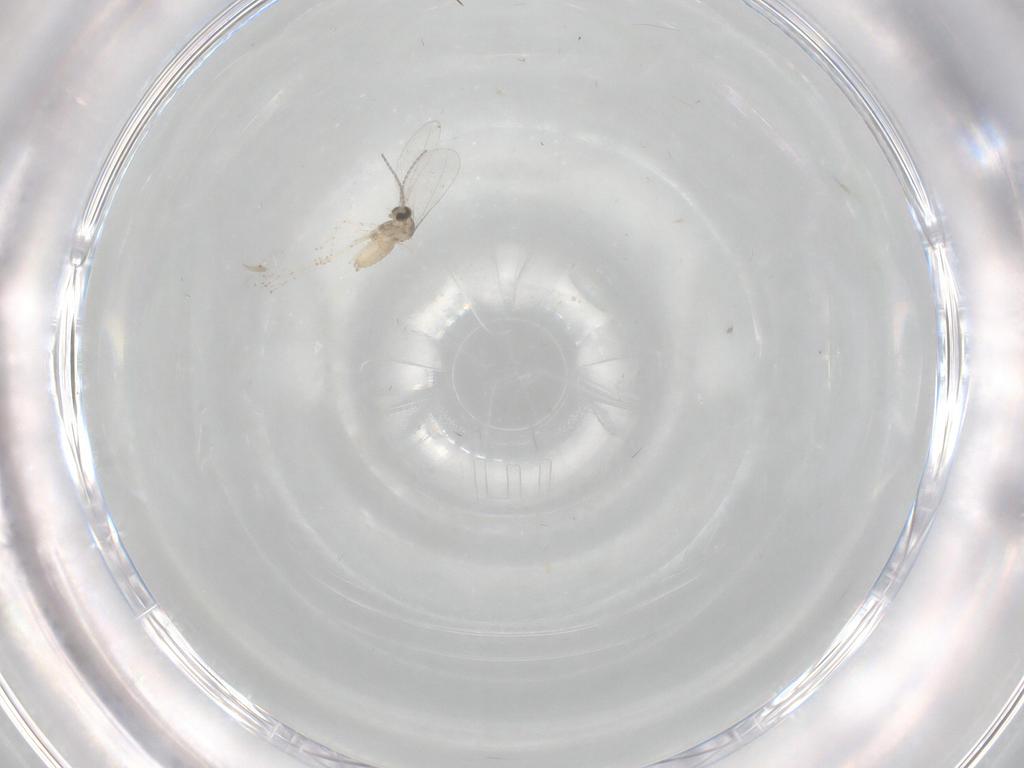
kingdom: Animalia
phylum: Arthropoda
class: Insecta
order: Diptera
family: Cecidomyiidae
